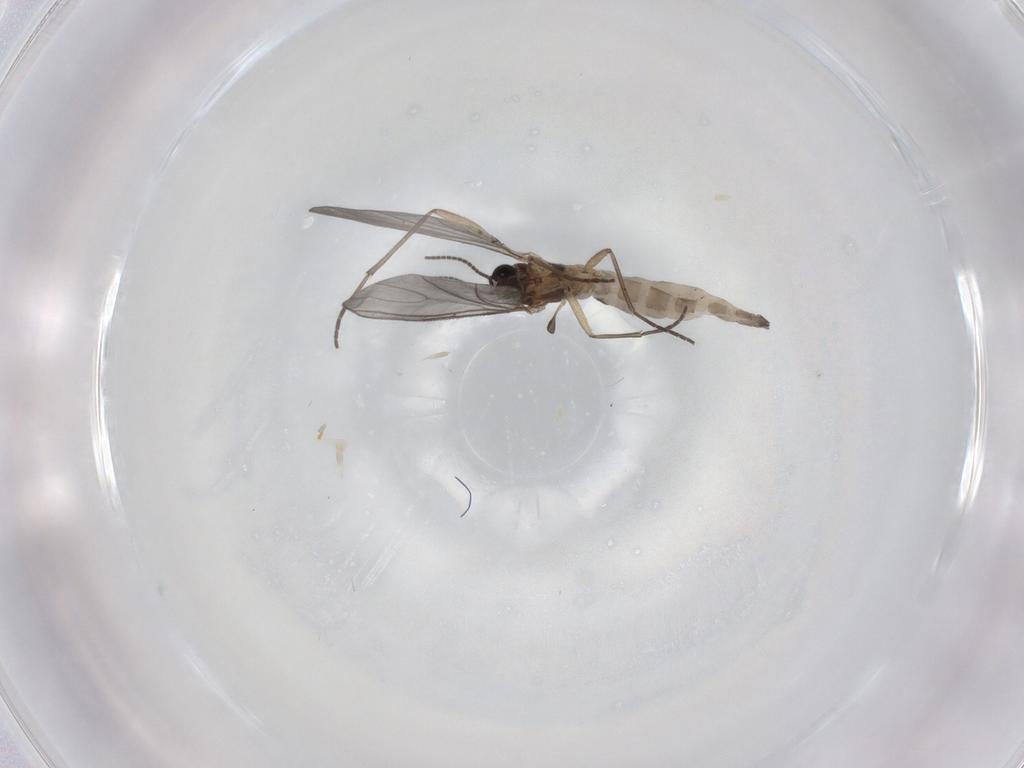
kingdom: Animalia
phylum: Arthropoda
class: Insecta
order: Diptera
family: Sciaridae
